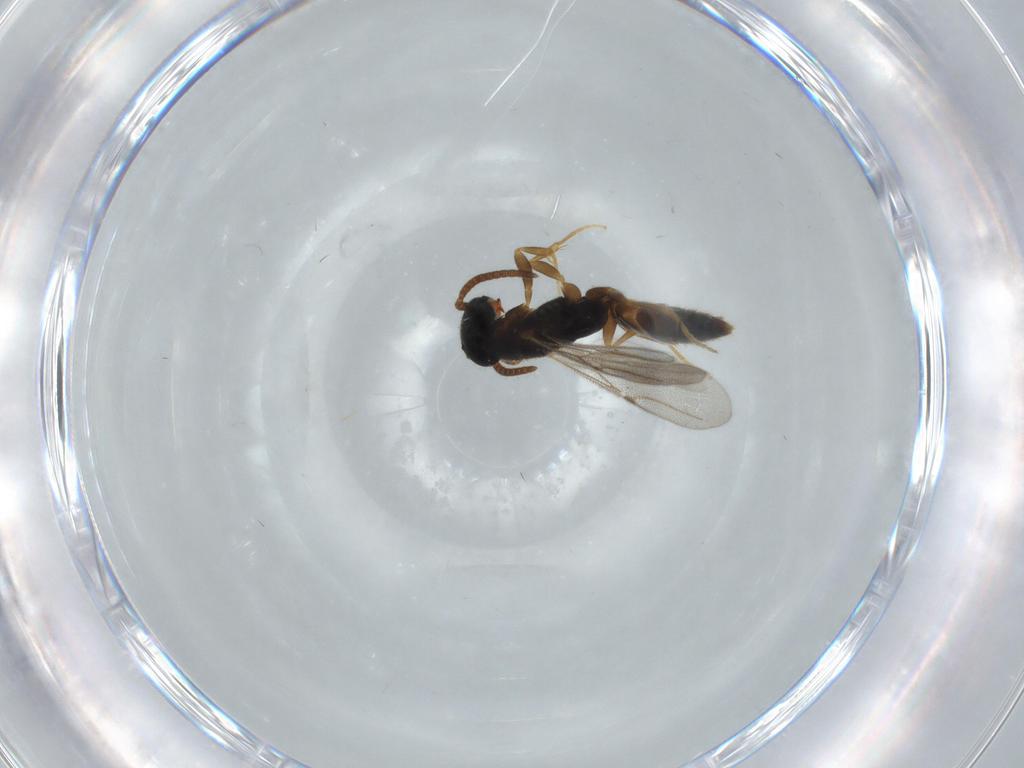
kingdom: Animalia
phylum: Arthropoda
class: Insecta
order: Hymenoptera
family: Bethylidae
